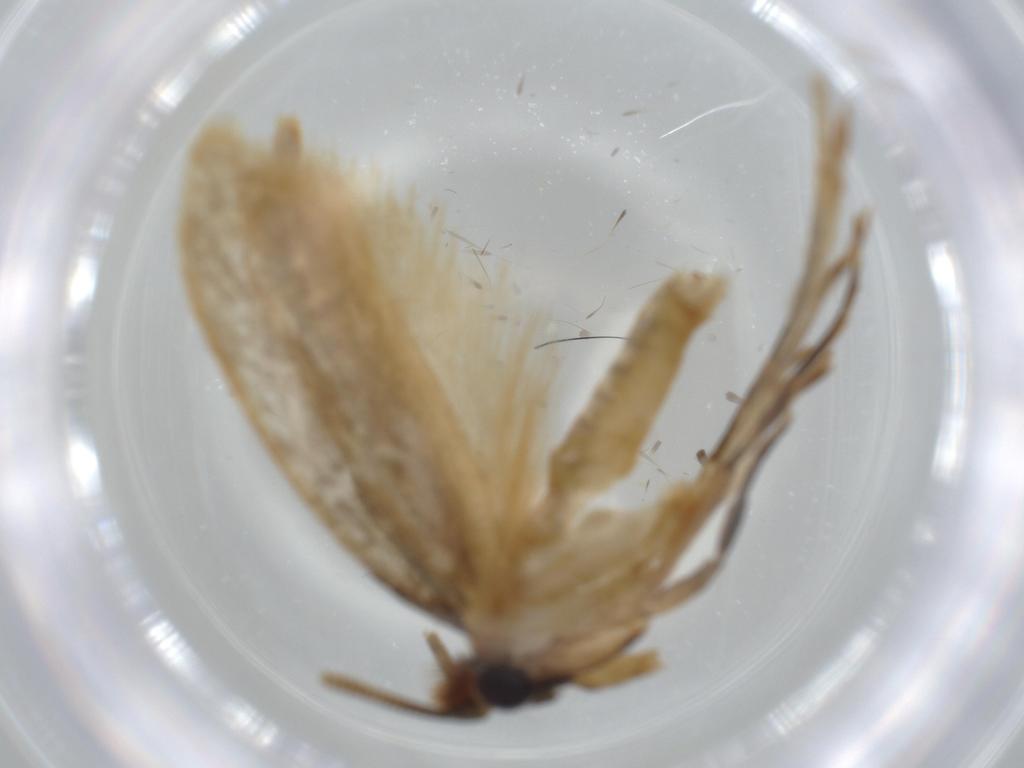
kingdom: Animalia
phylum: Arthropoda
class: Insecta
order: Lepidoptera
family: Tineidae
